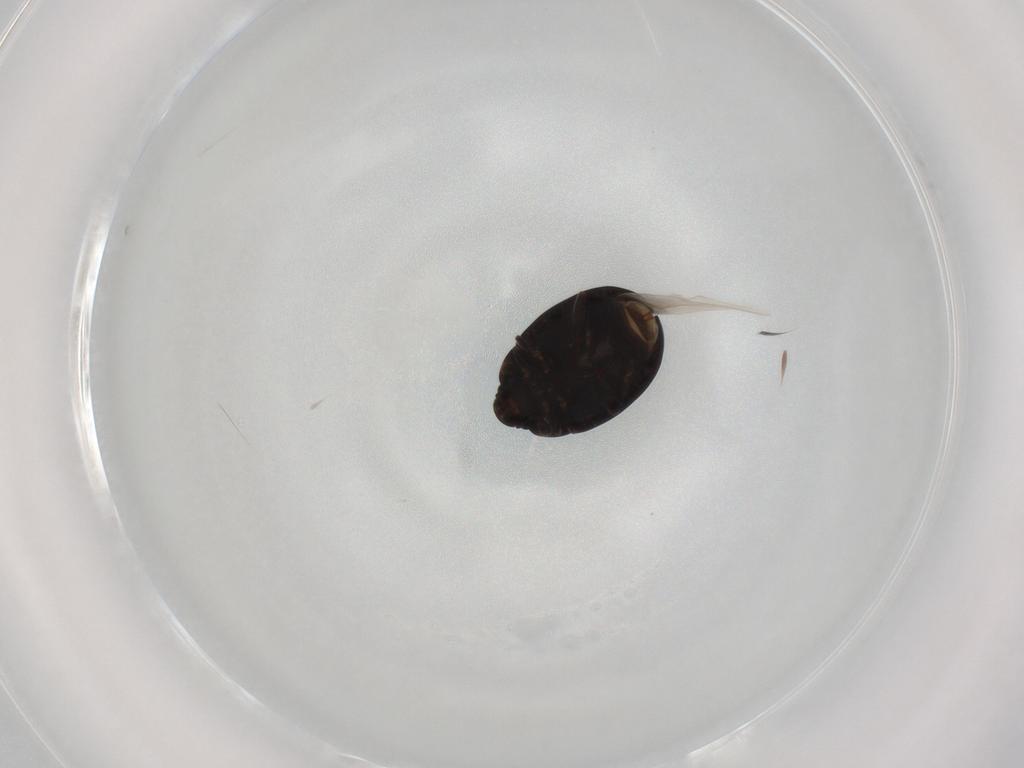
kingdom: Animalia
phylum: Arthropoda
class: Insecta
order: Coleoptera
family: Discolomatidae
